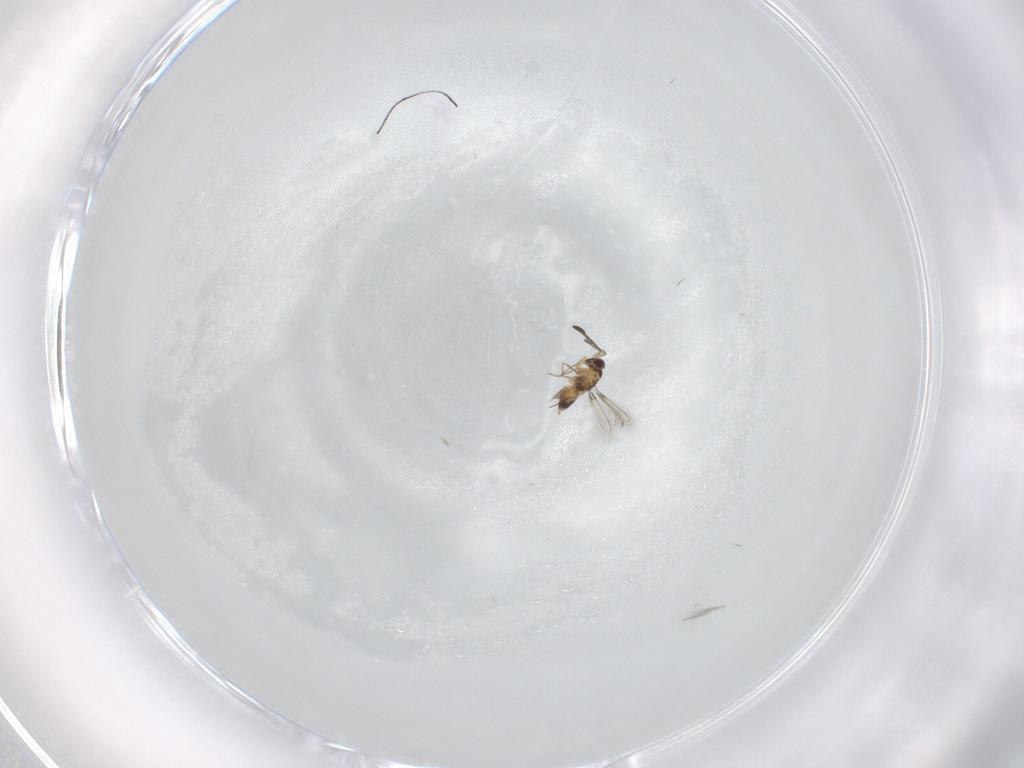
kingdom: Animalia
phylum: Arthropoda
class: Insecta
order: Hymenoptera
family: Mymaridae
